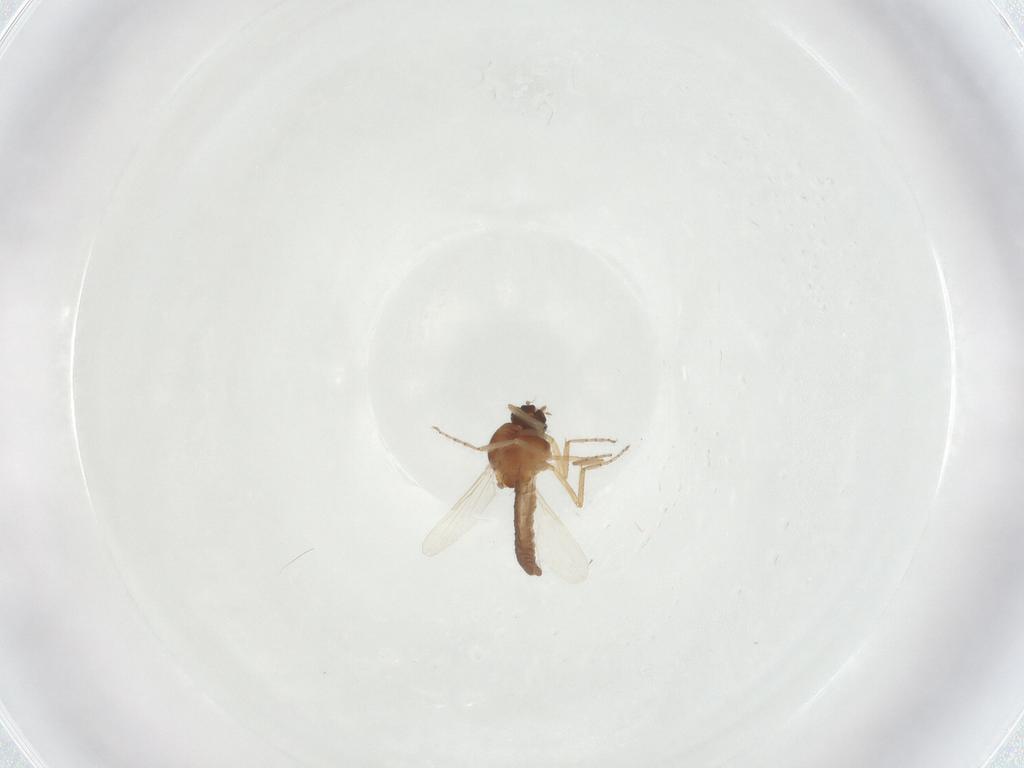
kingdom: Animalia
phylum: Arthropoda
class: Insecta
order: Diptera
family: Ceratopogonidae
